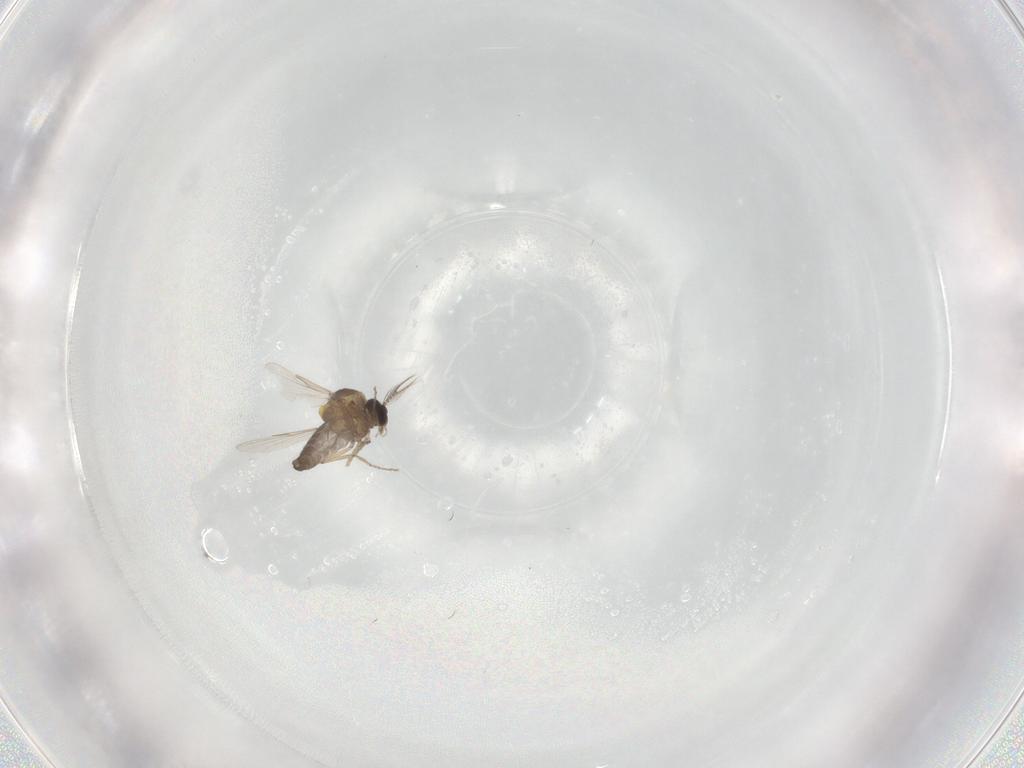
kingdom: Animalia
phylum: Arthropoda
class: Insecta
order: Diptera
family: Ceratopogonidae
